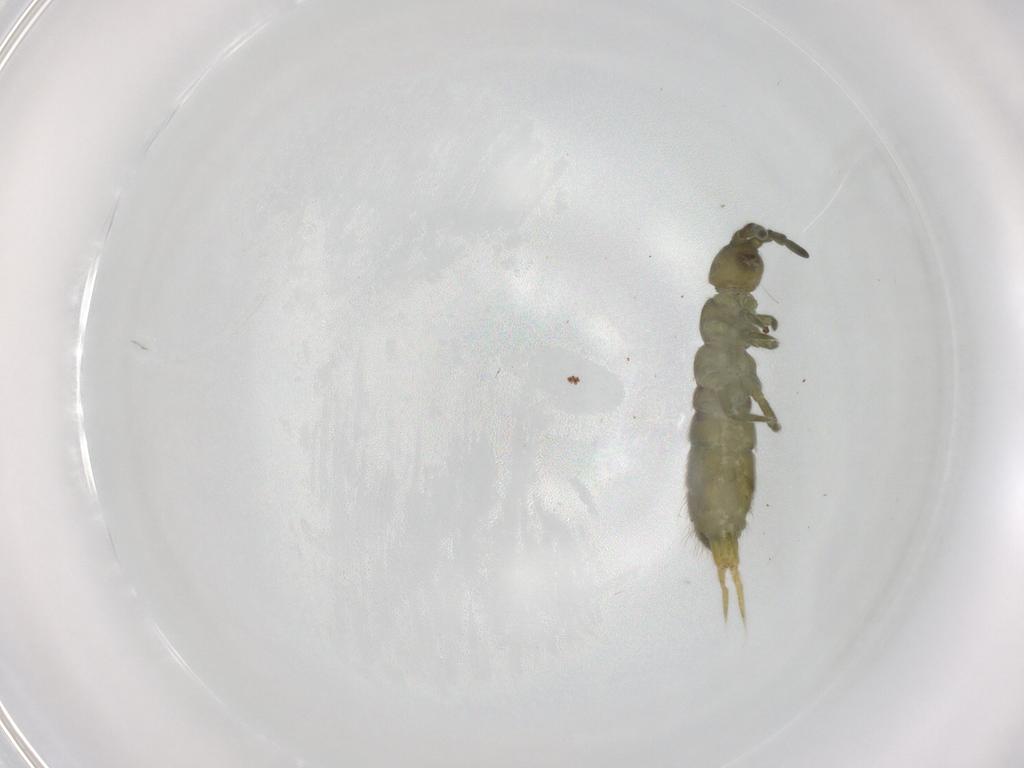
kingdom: Animalia
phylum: Arthropoda
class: Collembola
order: Entomobryomorpha
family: Isotomidae
